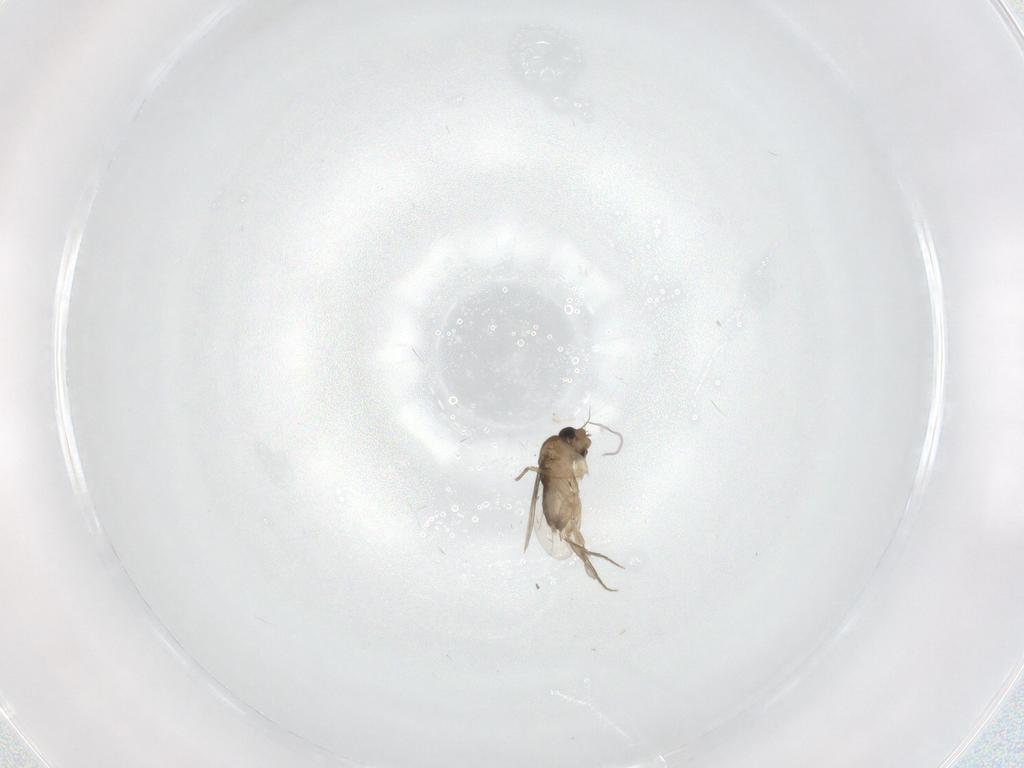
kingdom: Animalia
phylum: Arthropoda
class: Insecta
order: Diptera
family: Phoridae
